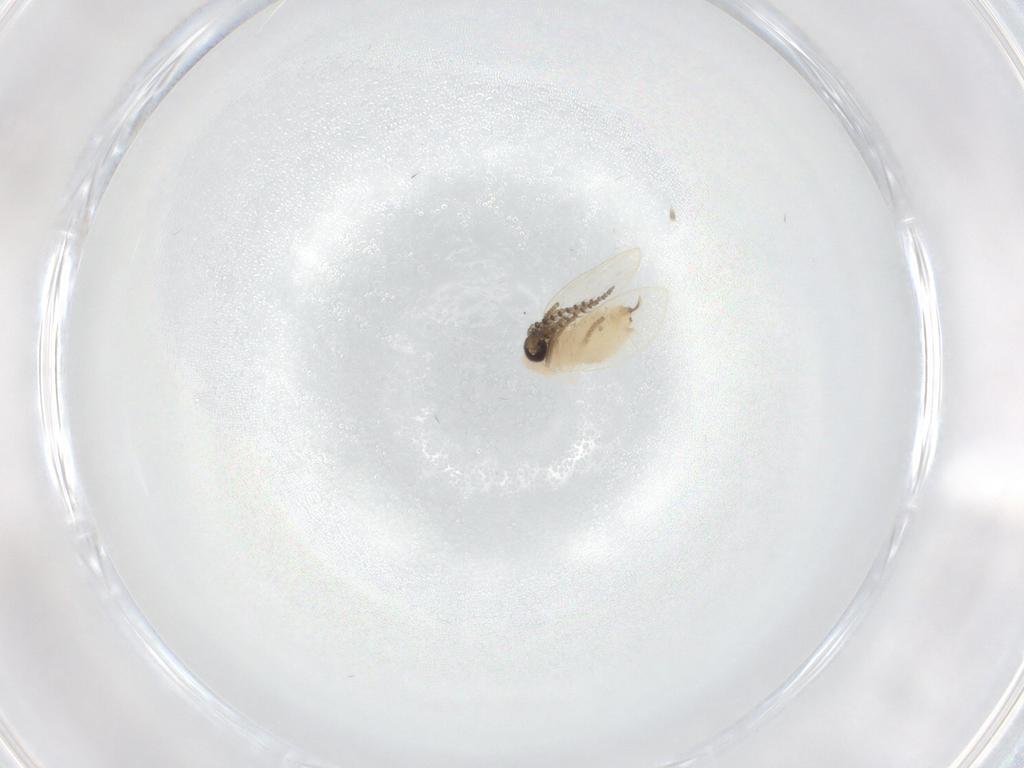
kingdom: Animalia
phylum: Arthropoda
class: Insecta
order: Diptera
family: Psychodidae
